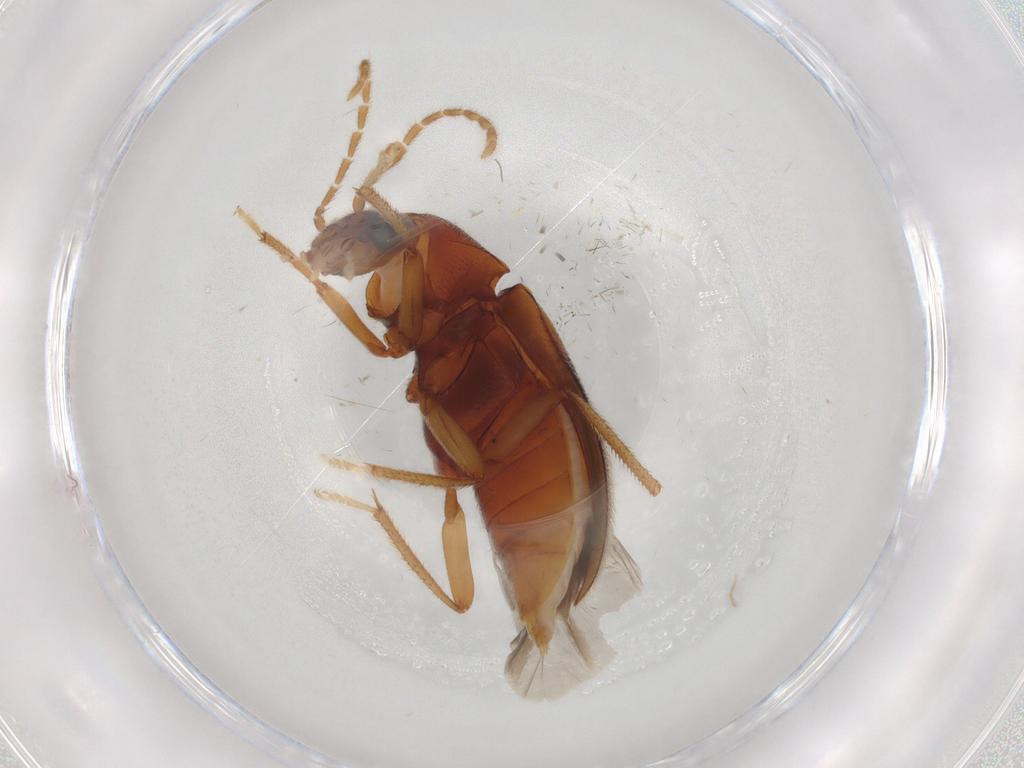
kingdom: Animalia
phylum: Arthropoda
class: Insecta
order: Coleoptera
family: Ptilodactylidae
